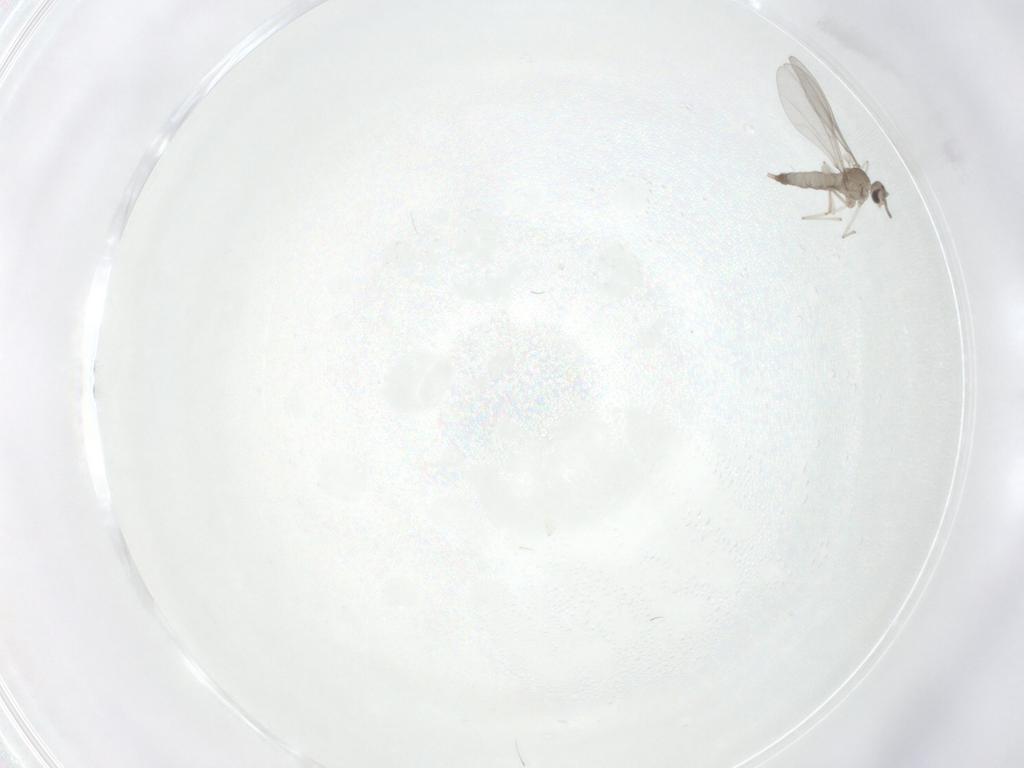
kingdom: Animalia
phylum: Arthropoda
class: Insecta
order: Diptera
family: Cecidomyiidae
